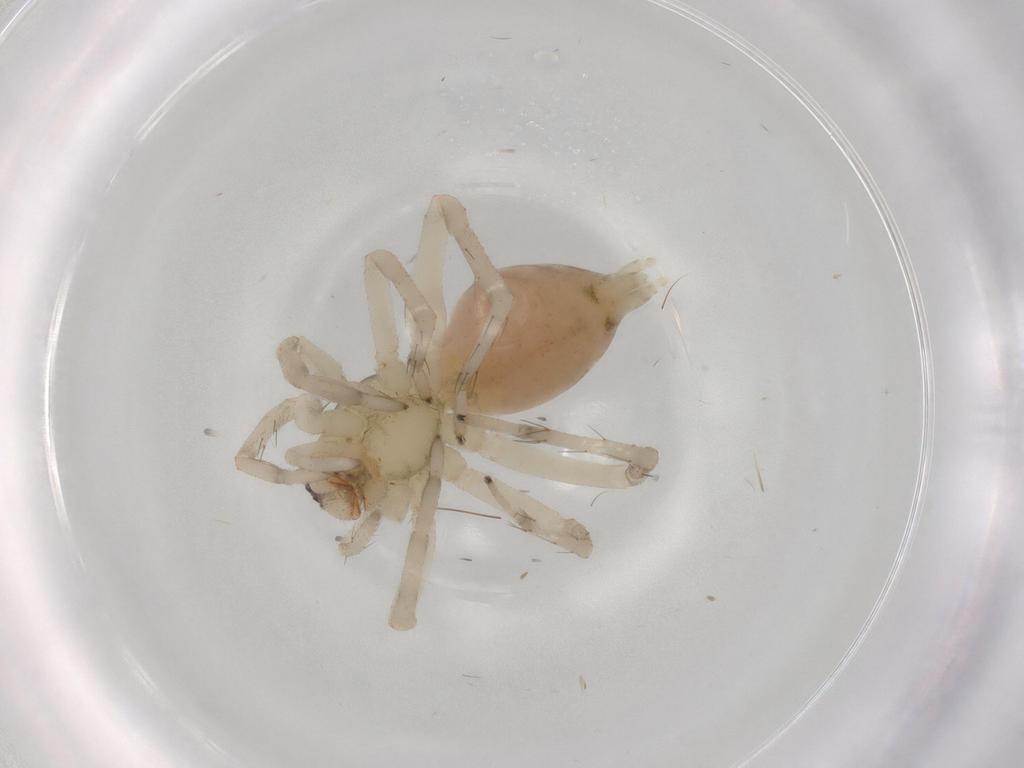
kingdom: Animalia
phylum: Arthropoda
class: Arachnida
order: Araneae
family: Anyphaenidae
